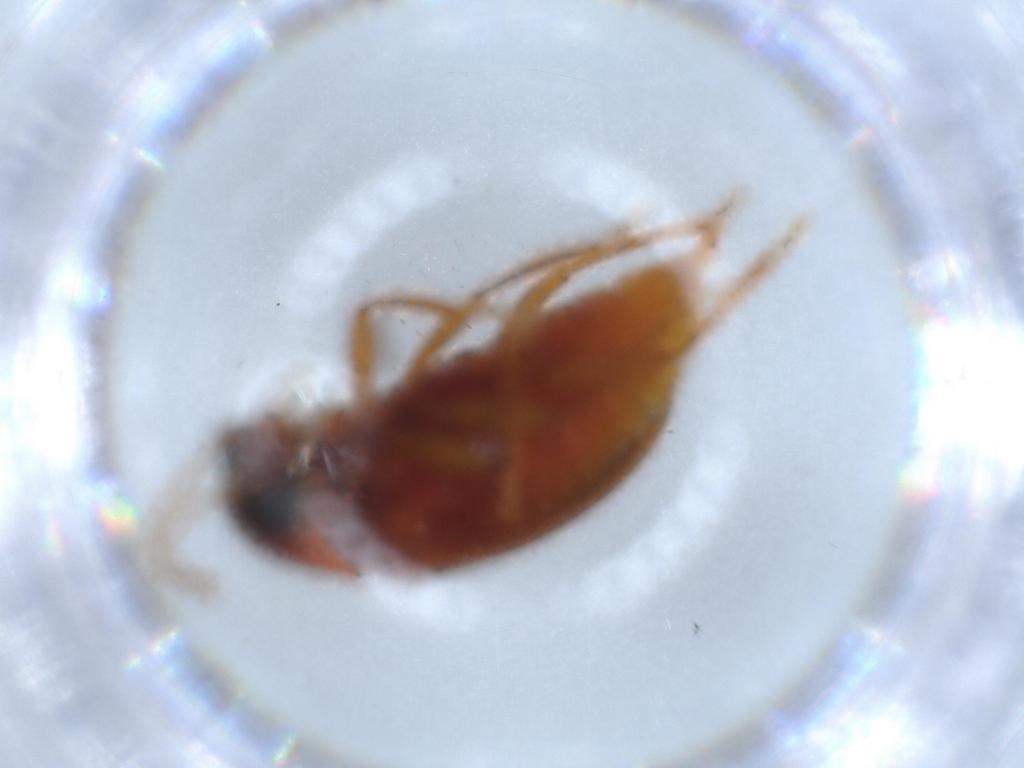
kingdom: Animalia
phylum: Arthropoda
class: Insecta
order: Coleoptera
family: Ptilodactylidae
